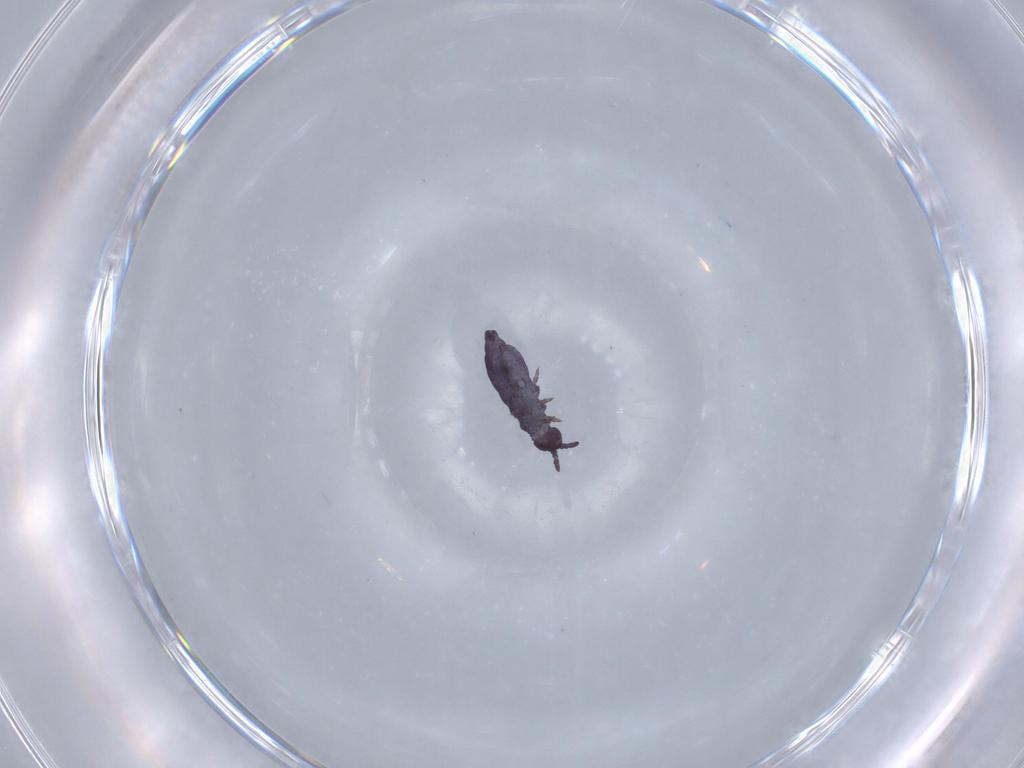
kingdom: Animalia
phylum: Arthropoda
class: Collembola
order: Poduromorpha
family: Hypogastruridae
